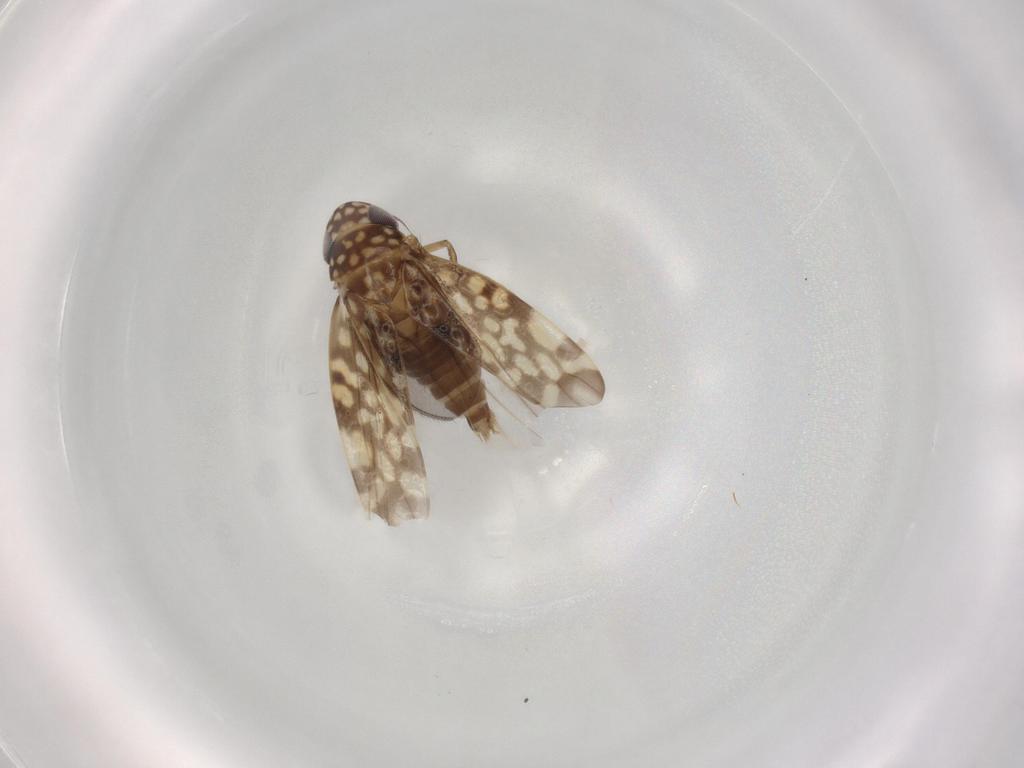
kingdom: Animalia
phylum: Arthropoda
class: Insecta
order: Hemiptera
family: Cicadellidae
